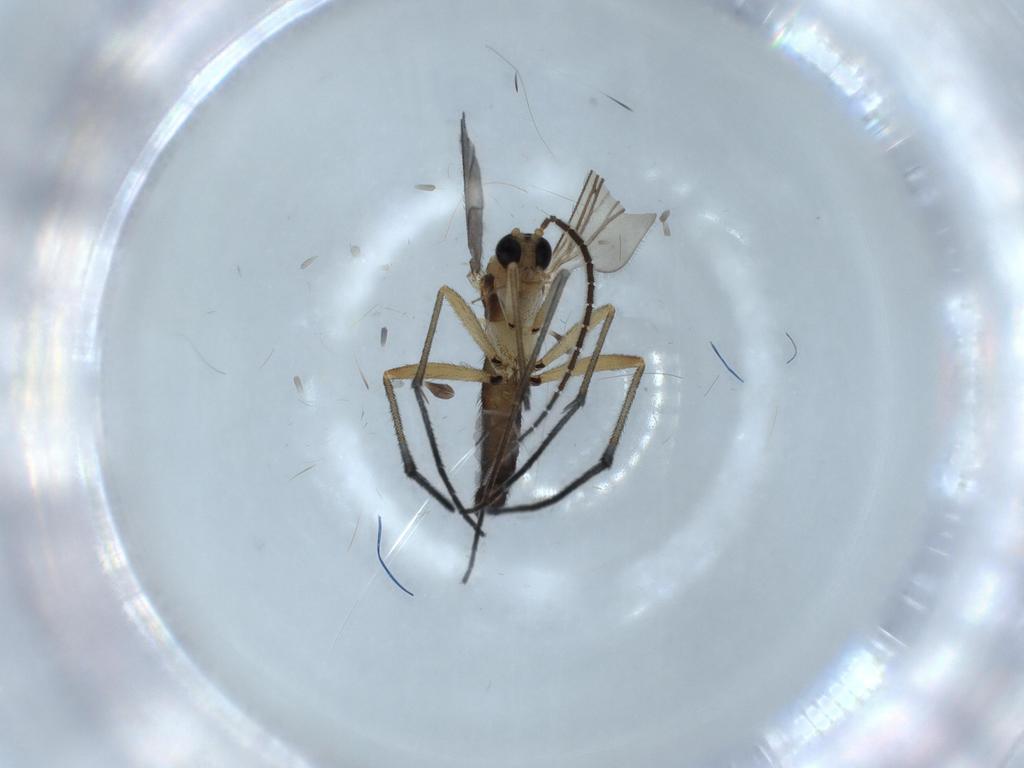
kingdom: Animalia
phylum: Arthropoda
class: Insecta
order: Diptera
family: Sciaridae
